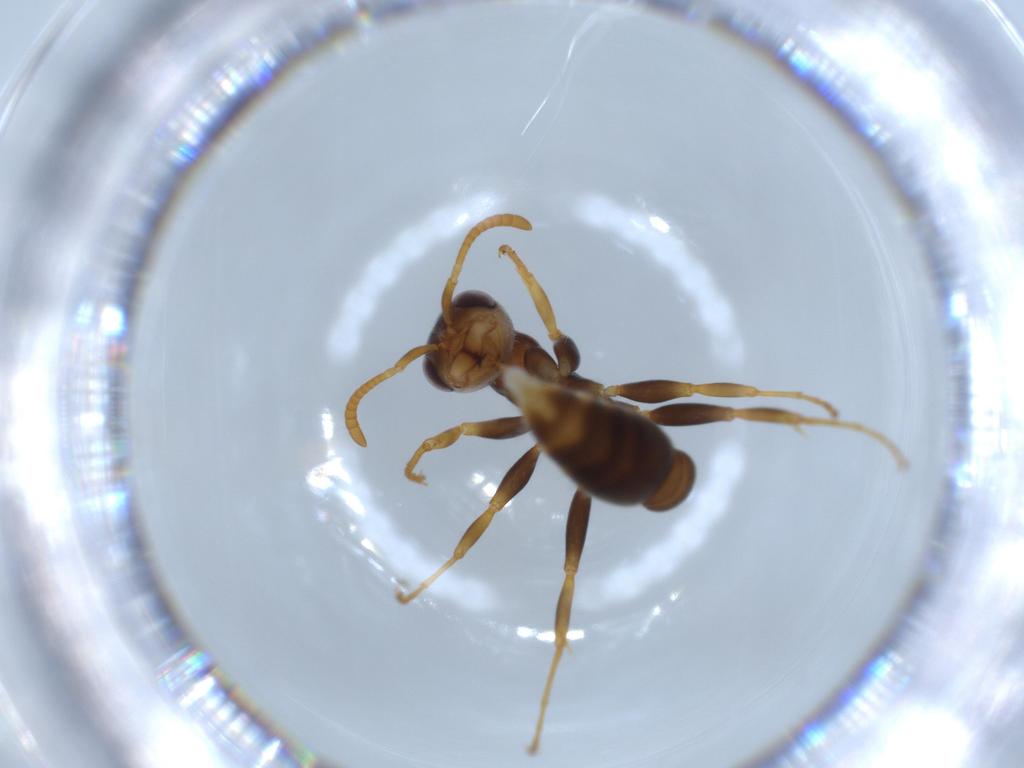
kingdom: Animalia
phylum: Arthropoda
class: Insecta
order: Hymenoptera
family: Formicidae
